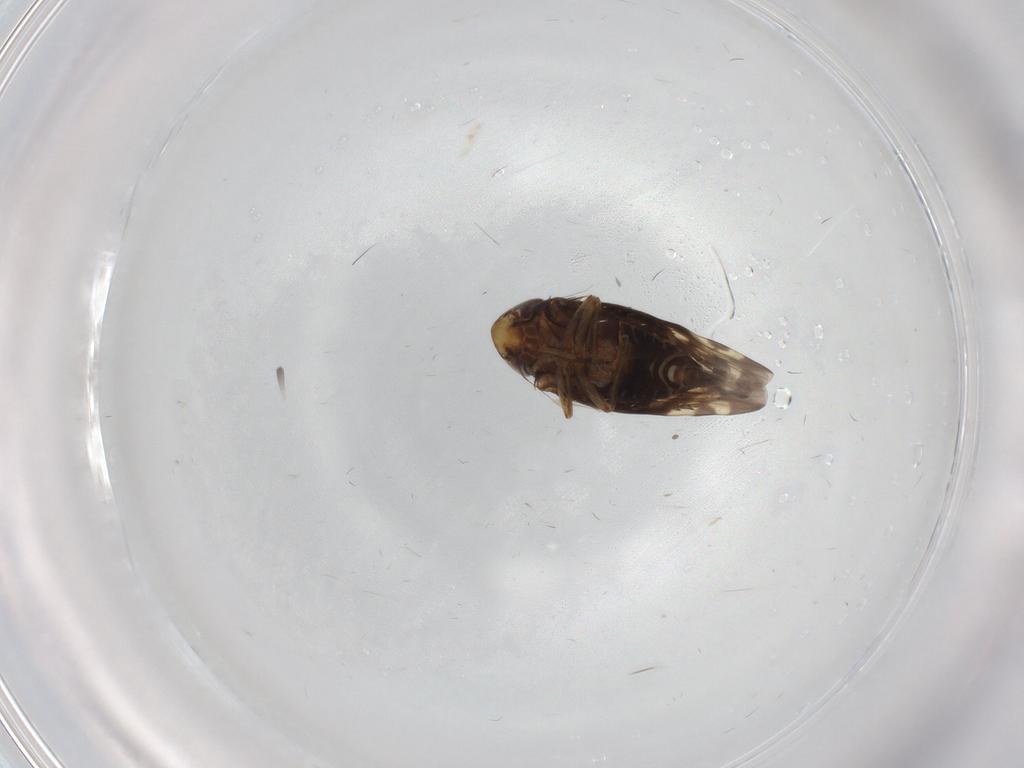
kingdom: Animalia
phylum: Arthropoda
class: Insecta
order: Hemiptera
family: Cicadellidae
